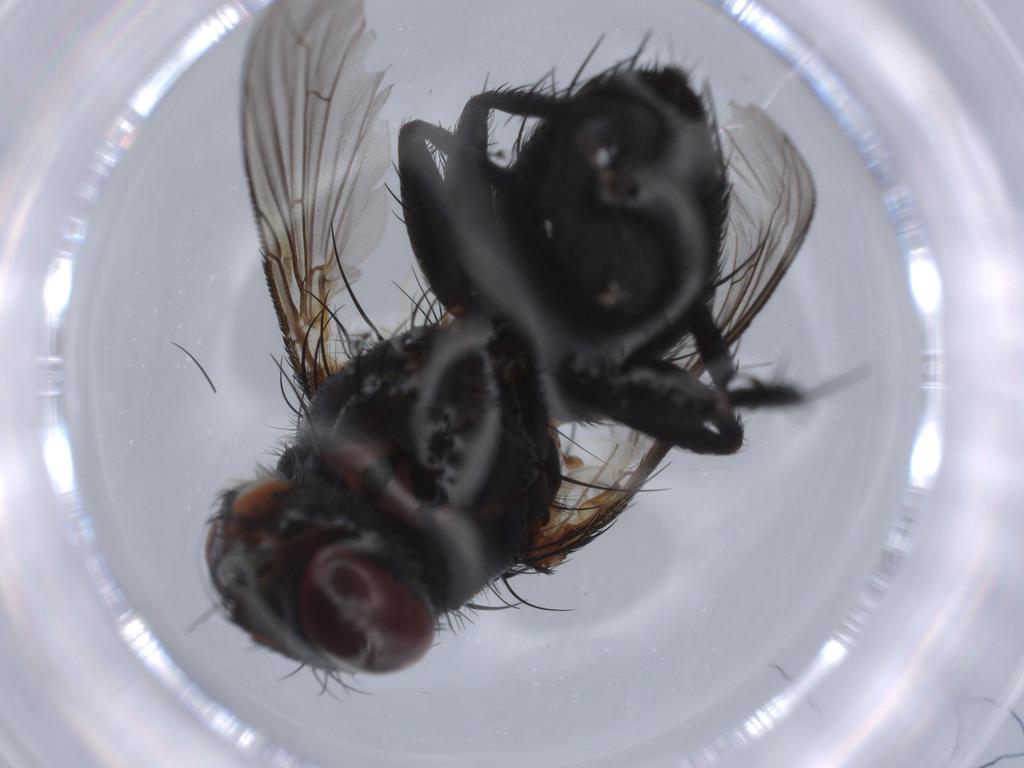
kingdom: Animalia
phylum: Arthropoda
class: Insecta
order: Diptera
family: Tachinidae
